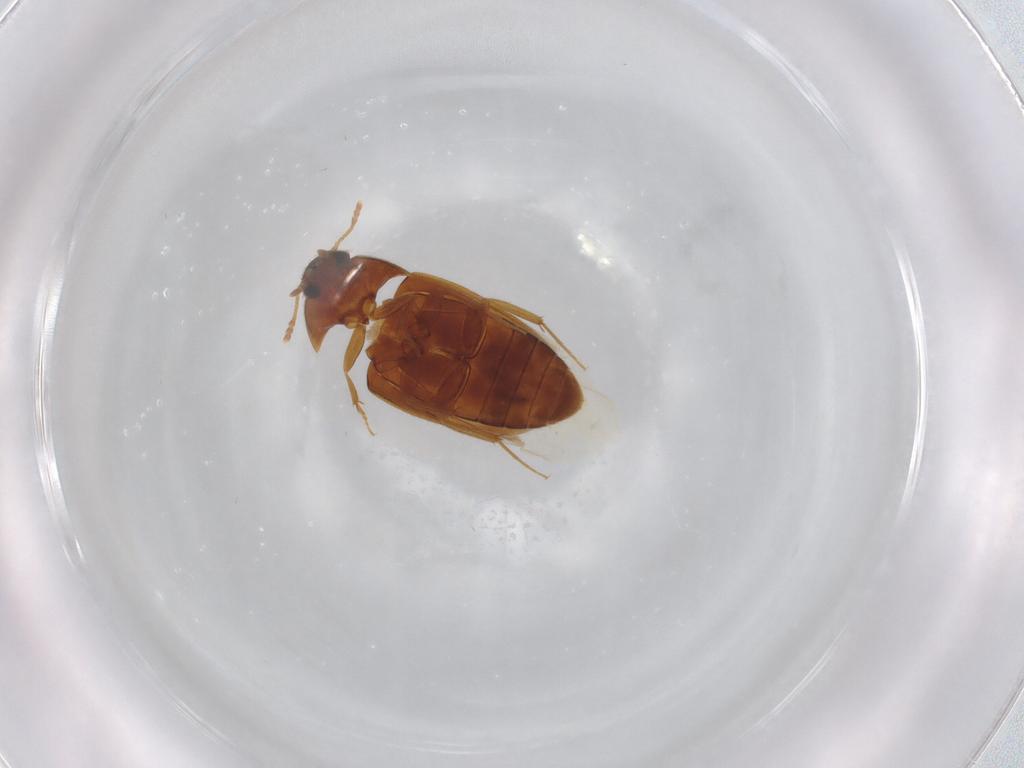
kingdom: Animalia
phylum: Arthropoda
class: Insecta
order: Coleoptera
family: Mycetophagidae
